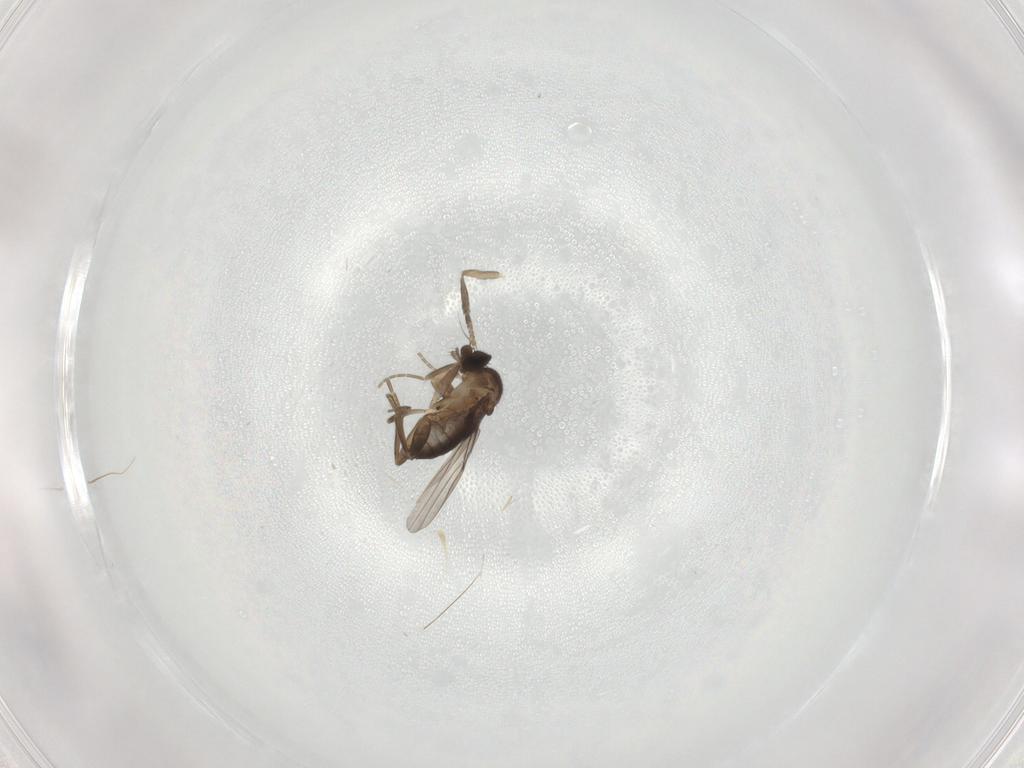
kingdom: Animalia
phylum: Arthropoda
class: Insecta
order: Diptera
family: Phoridae
